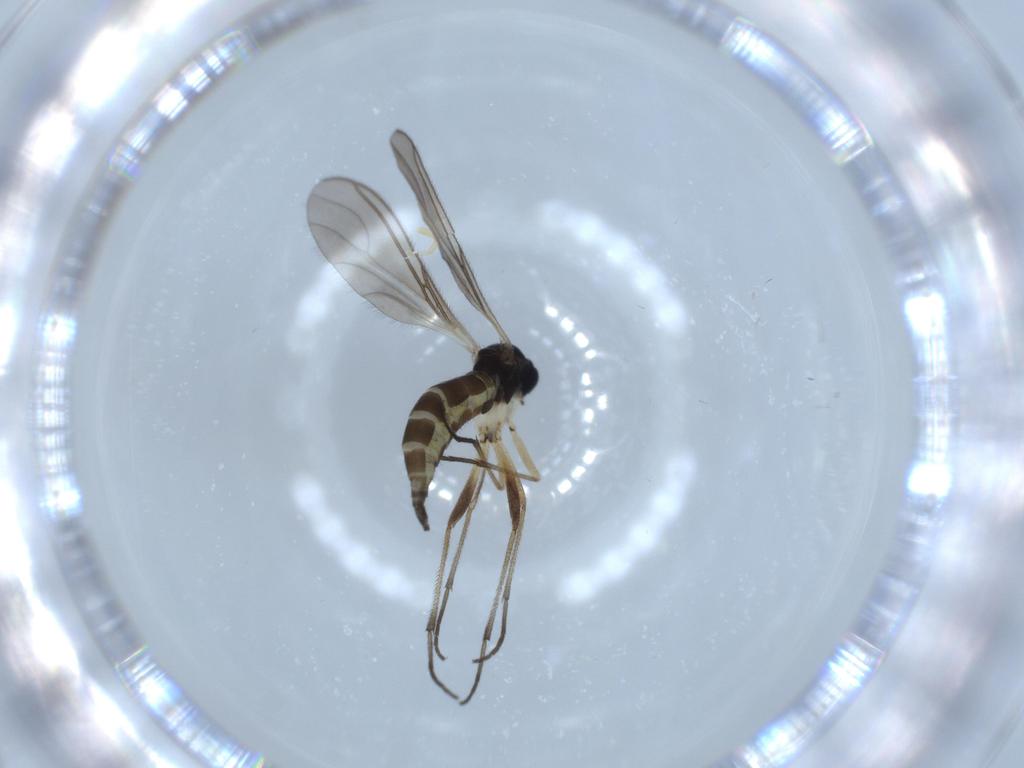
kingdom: Animalia
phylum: Arthropoda
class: Insecta
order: Diptera
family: Sciaridae
